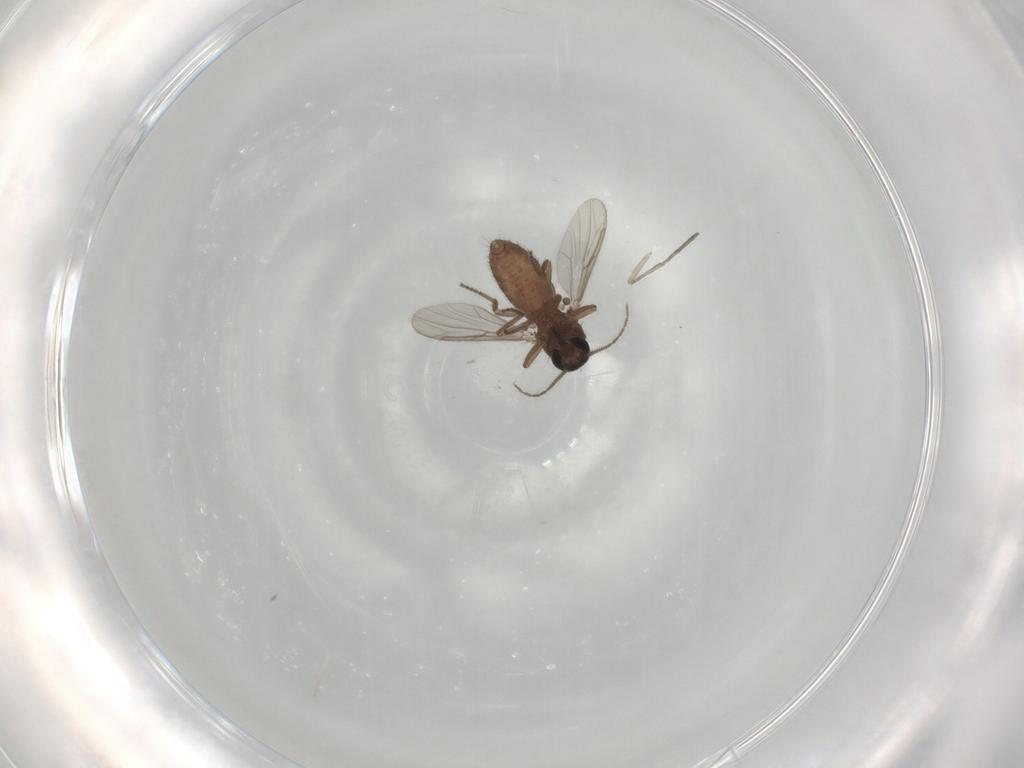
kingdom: Animalia
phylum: Arthropoda
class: Insecta
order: Diptera
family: Ceratopogonidae
